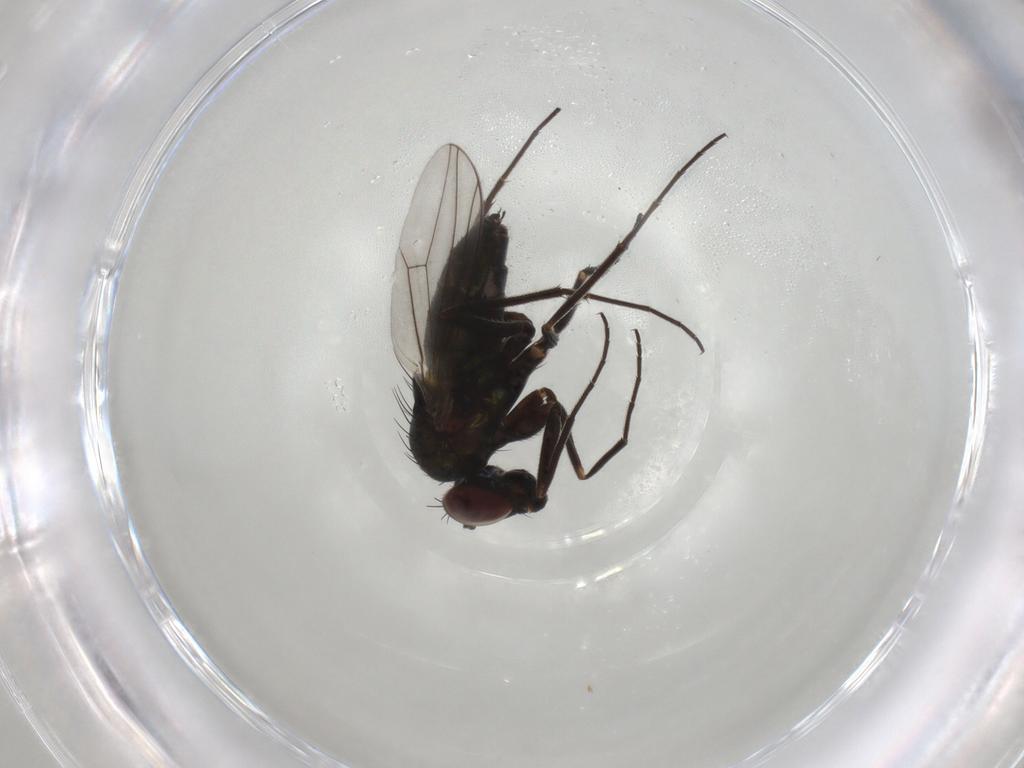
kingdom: Animalia
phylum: Arthropoda
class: Insecta
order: Diptera
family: Dolichopodidae
